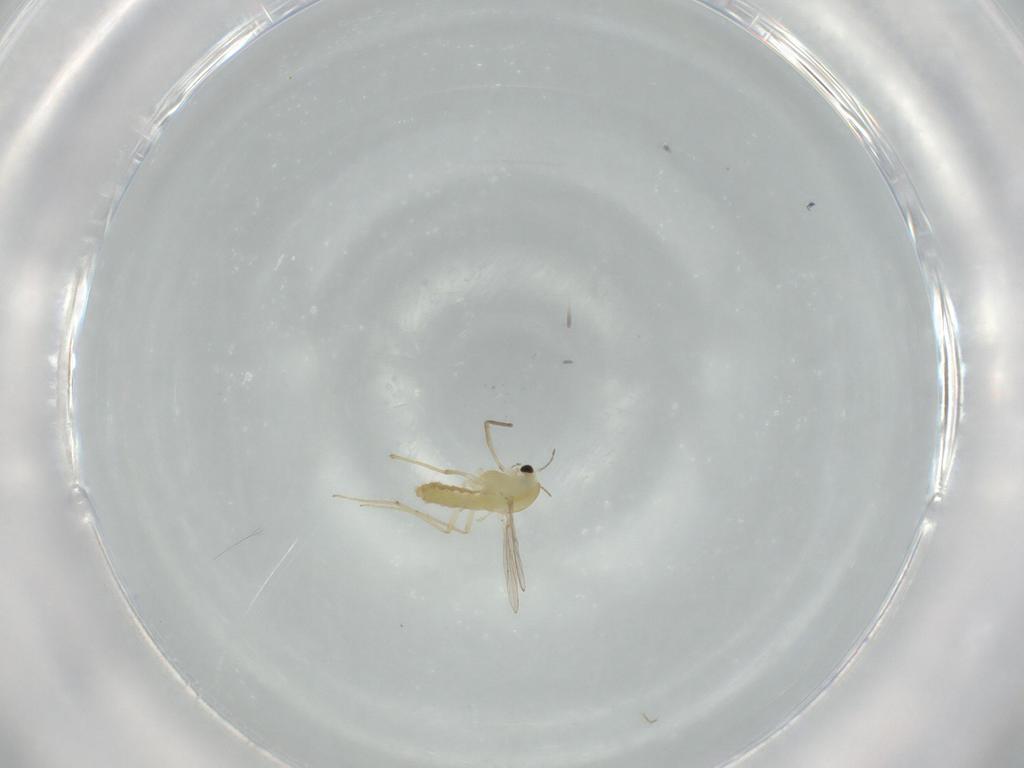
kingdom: Animalia
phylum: Arthropoda
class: Insecta
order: Diptera
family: Chironomidae
